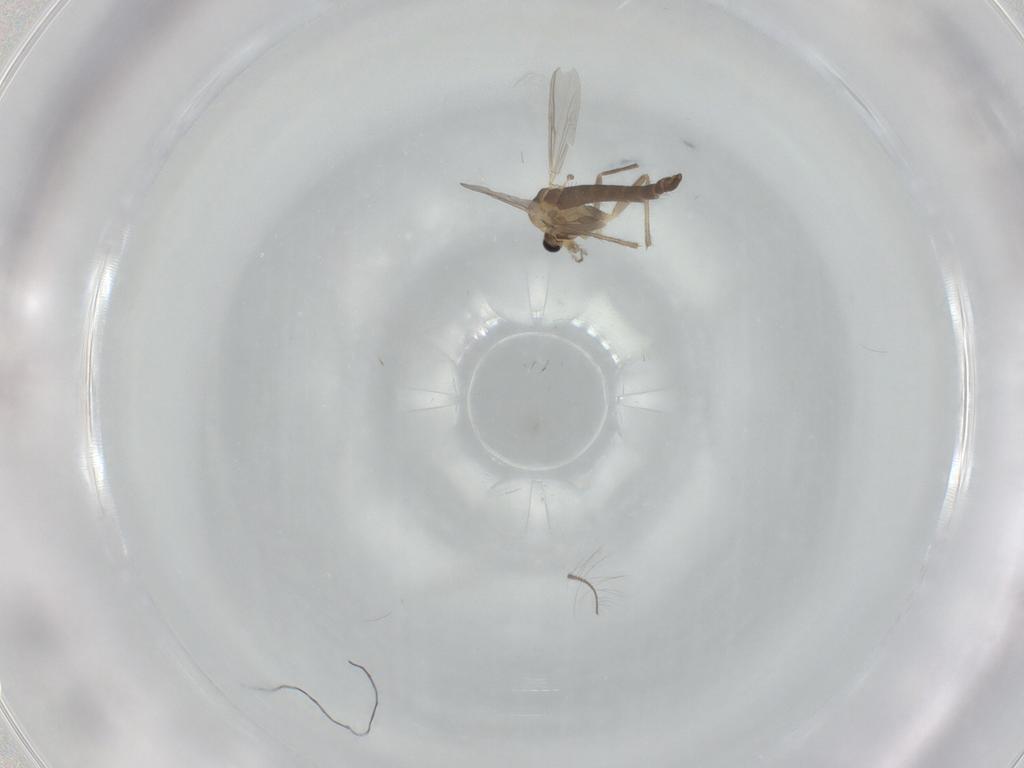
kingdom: Animalia
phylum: Arthropoda
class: Insecta
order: Diptera
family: Chironomidae
